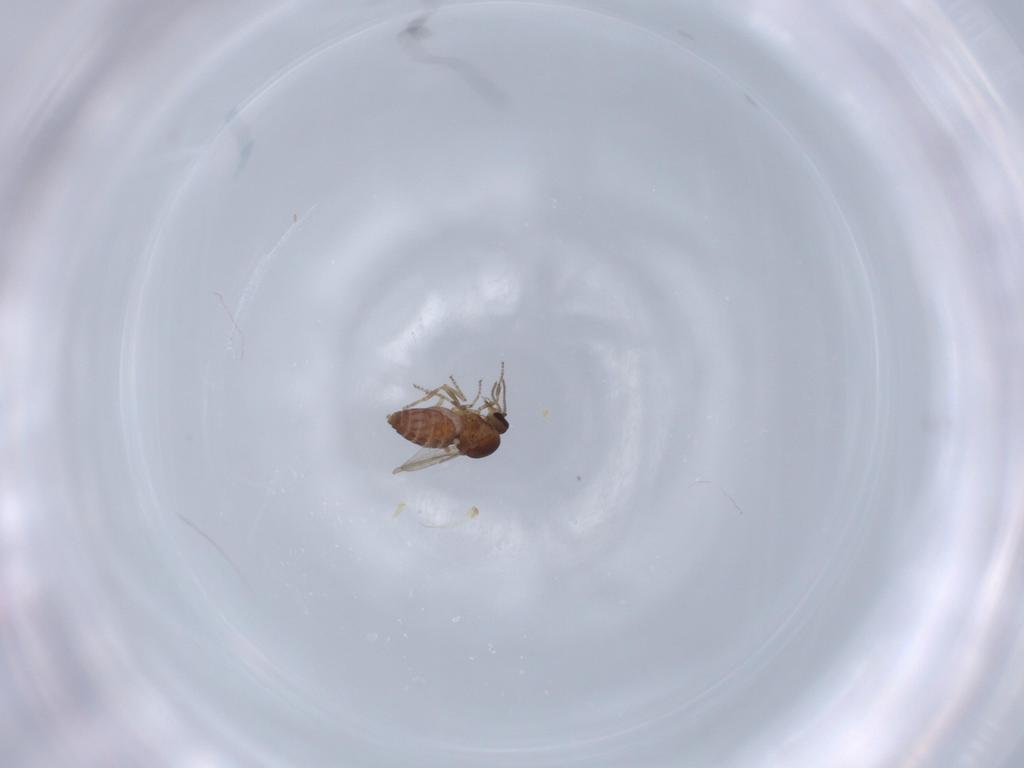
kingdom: Animalia
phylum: Arthropoda
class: Insecta
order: Diptera
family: Ceratopogonidae
